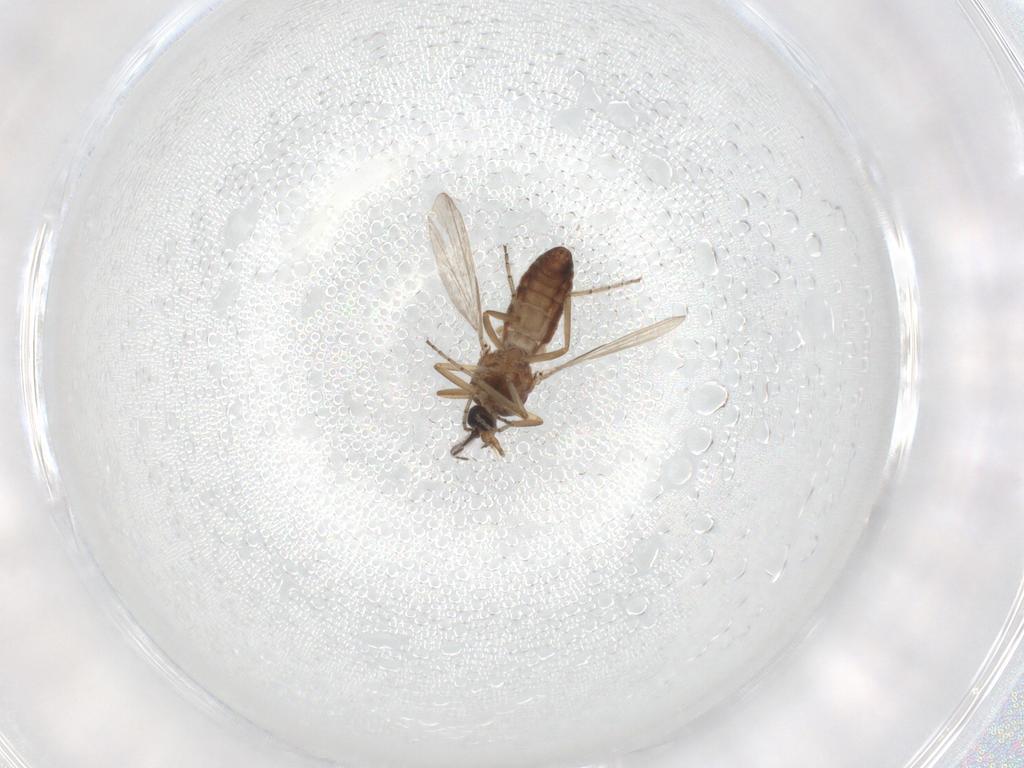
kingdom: Animalia
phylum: Arthropoda
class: Insecta
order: Diptera
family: Ceratopogonidae
